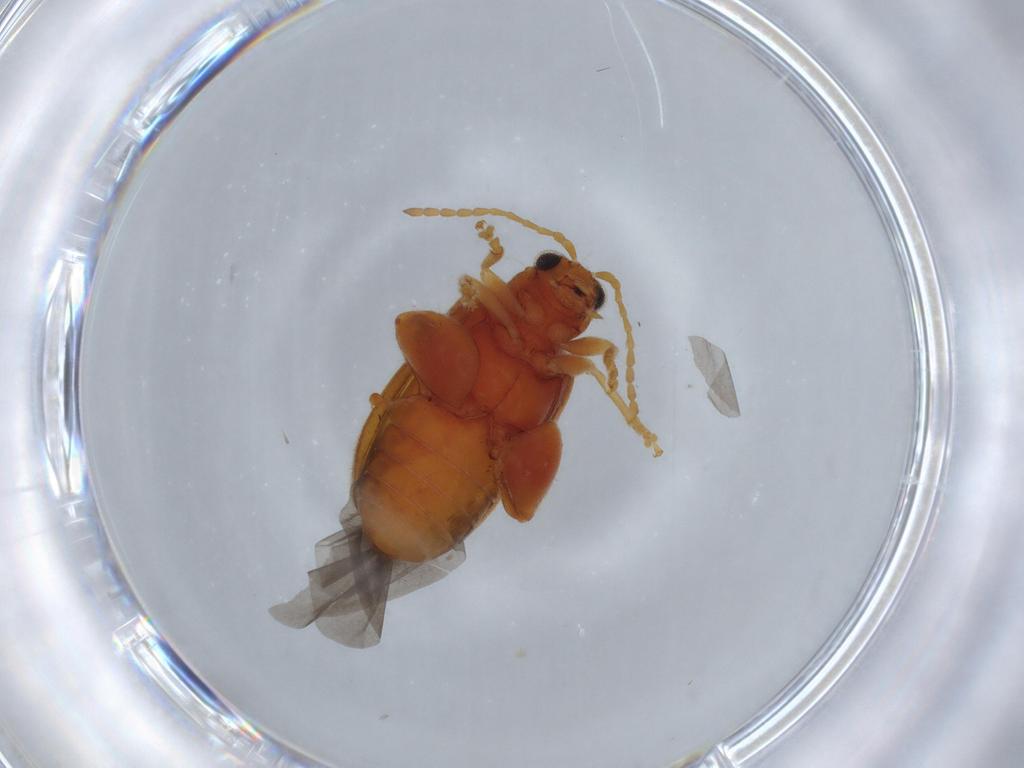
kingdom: Animalia
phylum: Arthropoda
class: Insecta
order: Coleoptera
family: Chrysomelidae
